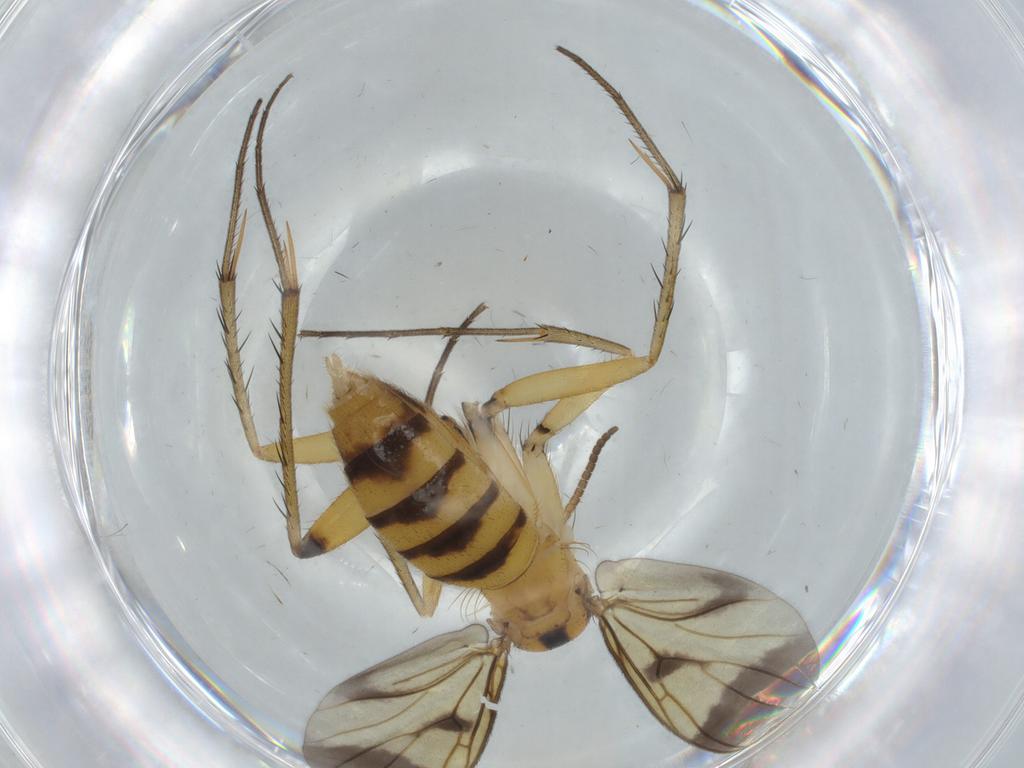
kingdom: Animalia
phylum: Arthropoda
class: Insecta
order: Diptera
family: Mycetophilidae
